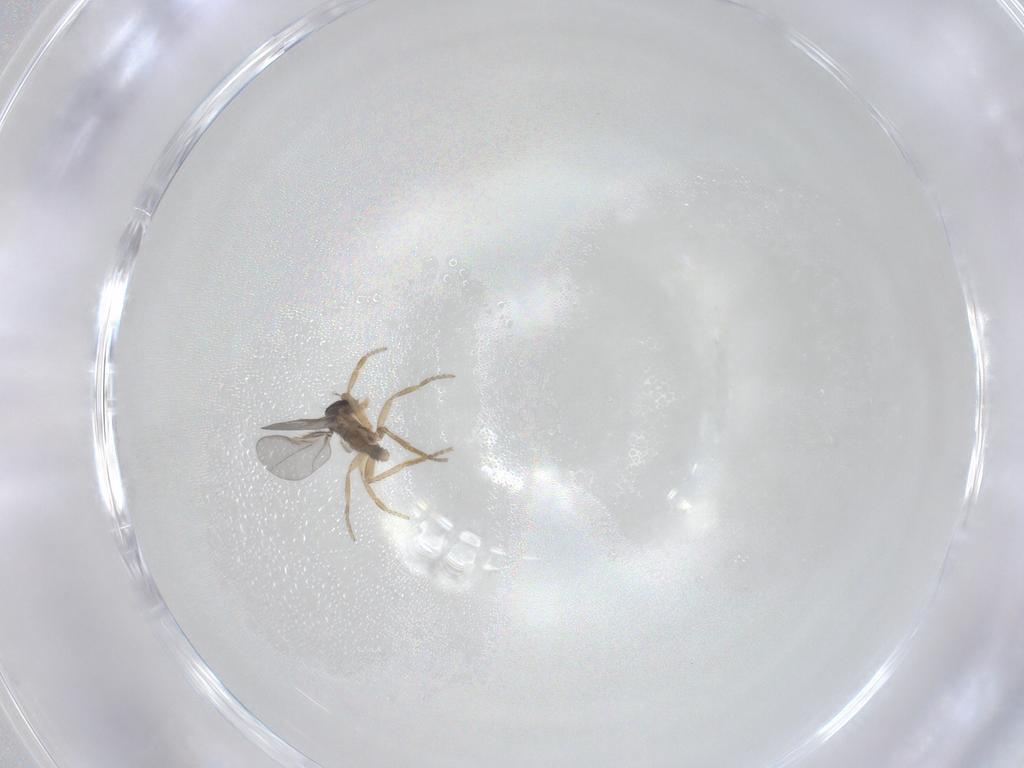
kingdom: Animalia
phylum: Arthropoda
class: Insecta
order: Diptera
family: Phoridae
